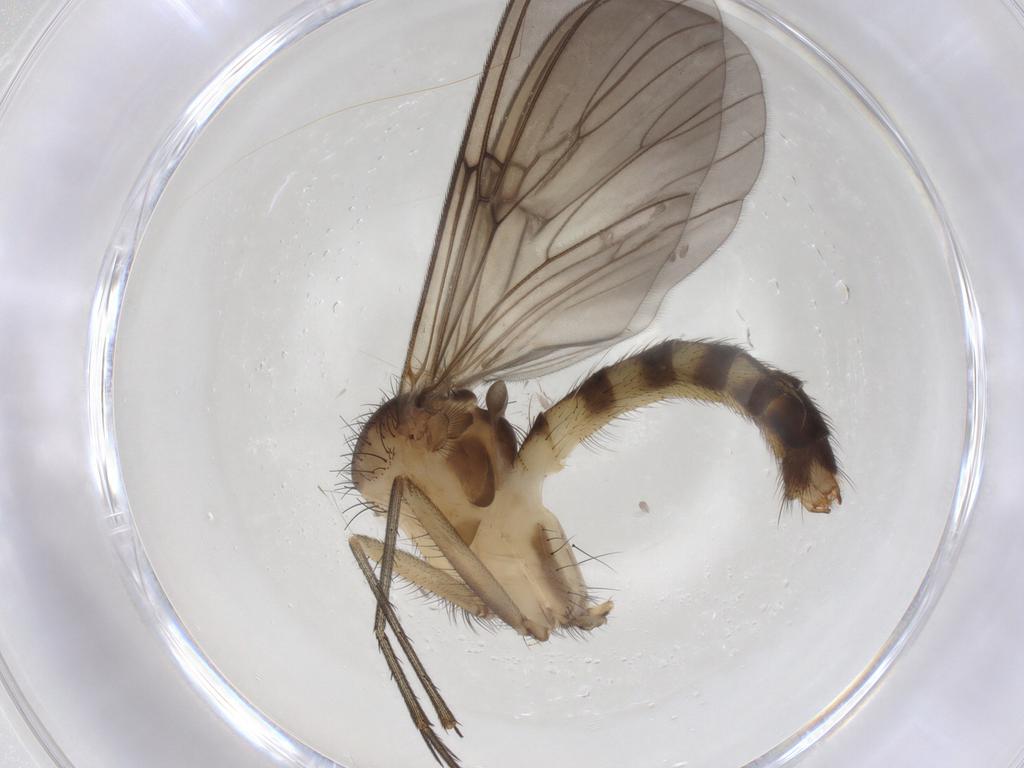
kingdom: Animalia
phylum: Arthropoda
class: Insecta
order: Diptera
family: Mycetophilidae
